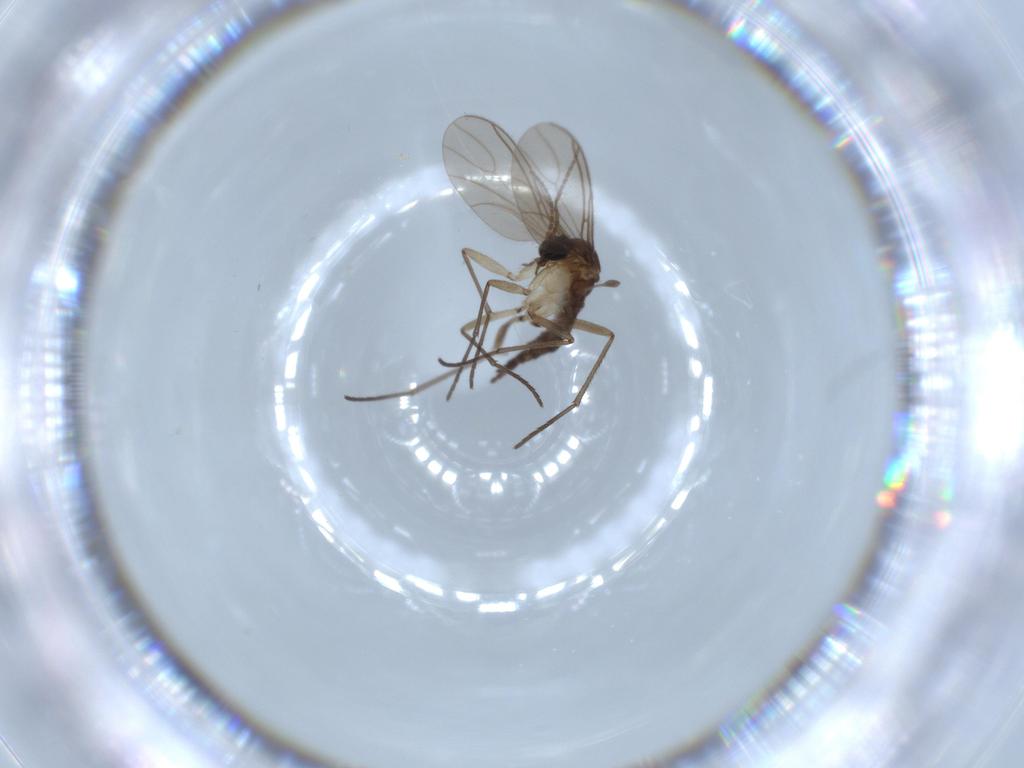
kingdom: Animalia
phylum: Arthropoda
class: Insecta
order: Diptera
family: Sciaridae
